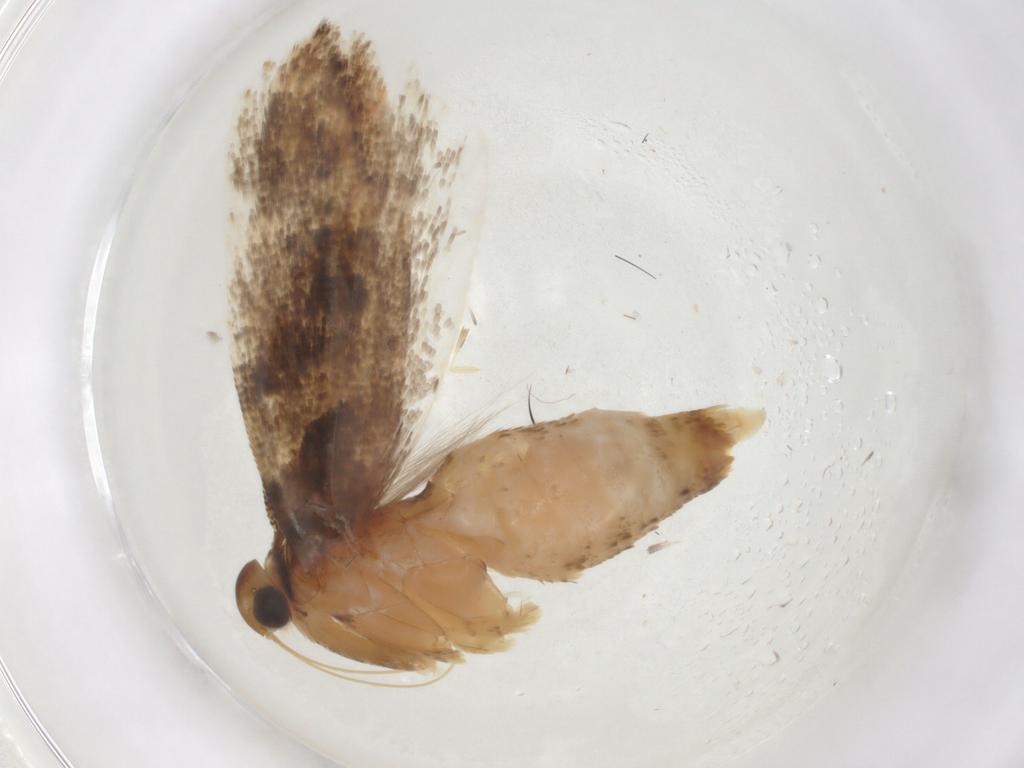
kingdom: Animalia
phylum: Arthropoda
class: Insecta
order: Lepidoptera
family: Gelechiidae
